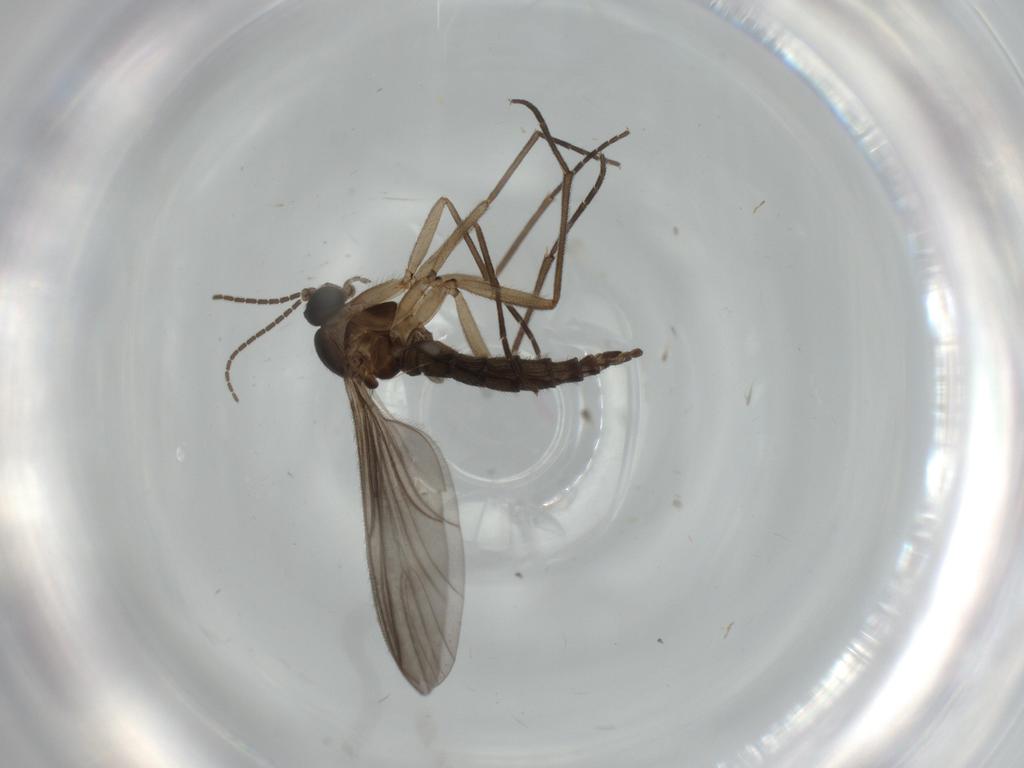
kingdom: Animalia
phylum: Arthropoda
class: Insecta
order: Diptera
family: Sciaridae
